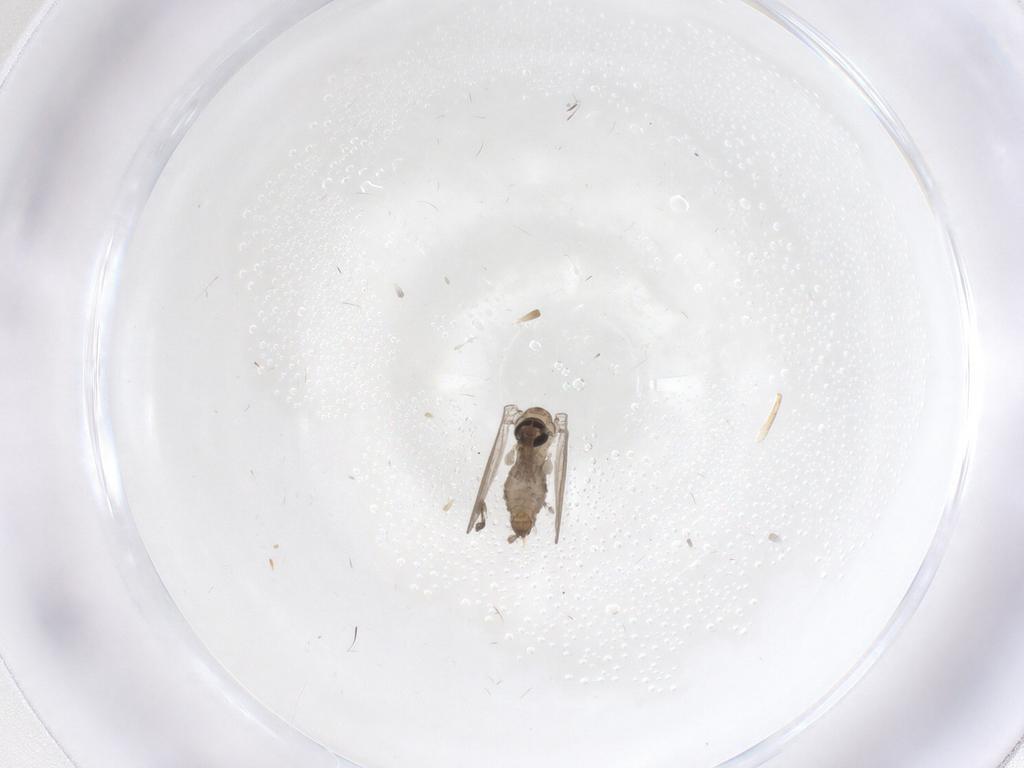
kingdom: Animalia
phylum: Arthropoda
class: Insecta
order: Diptera
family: Psychodidae
